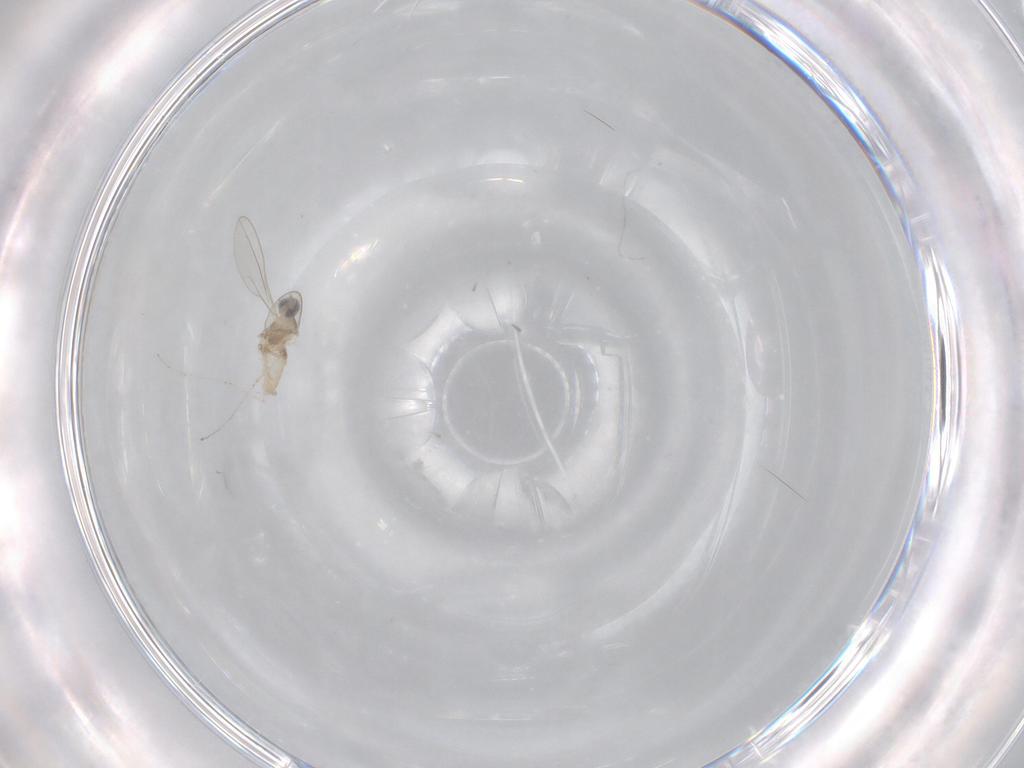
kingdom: Animalia
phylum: Arthropoda
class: Insecta
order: Diptera
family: Cecidomyiidae
